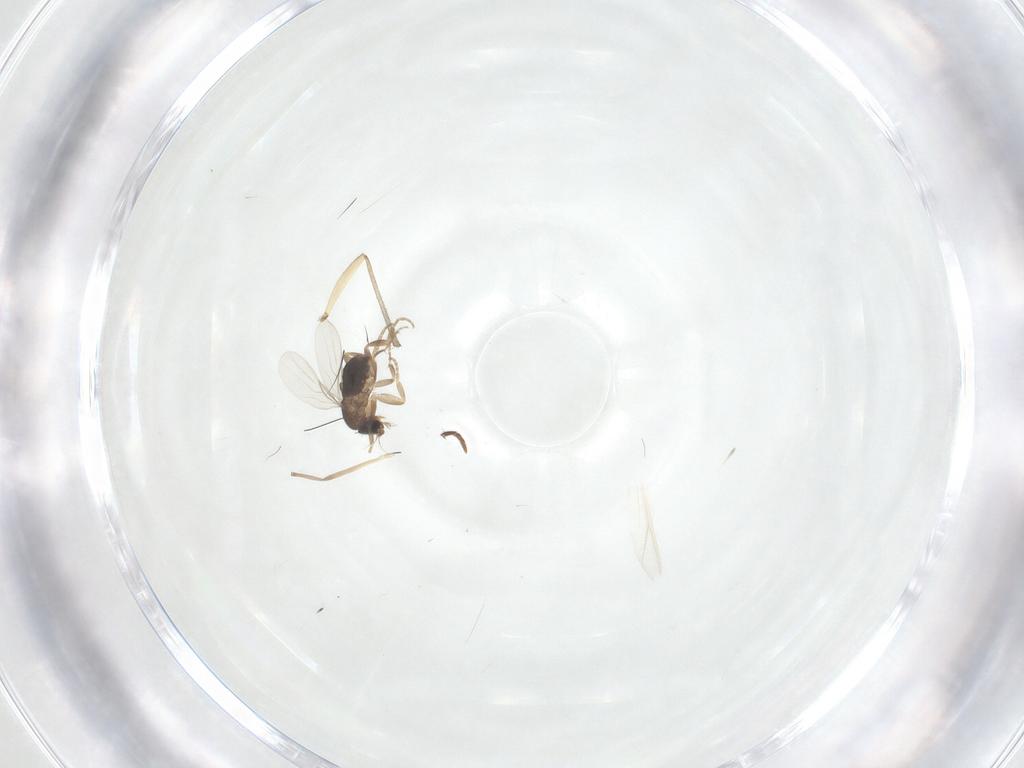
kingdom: Animalia
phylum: Arthropoda
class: Insecta
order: Diptera
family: Phoridae
